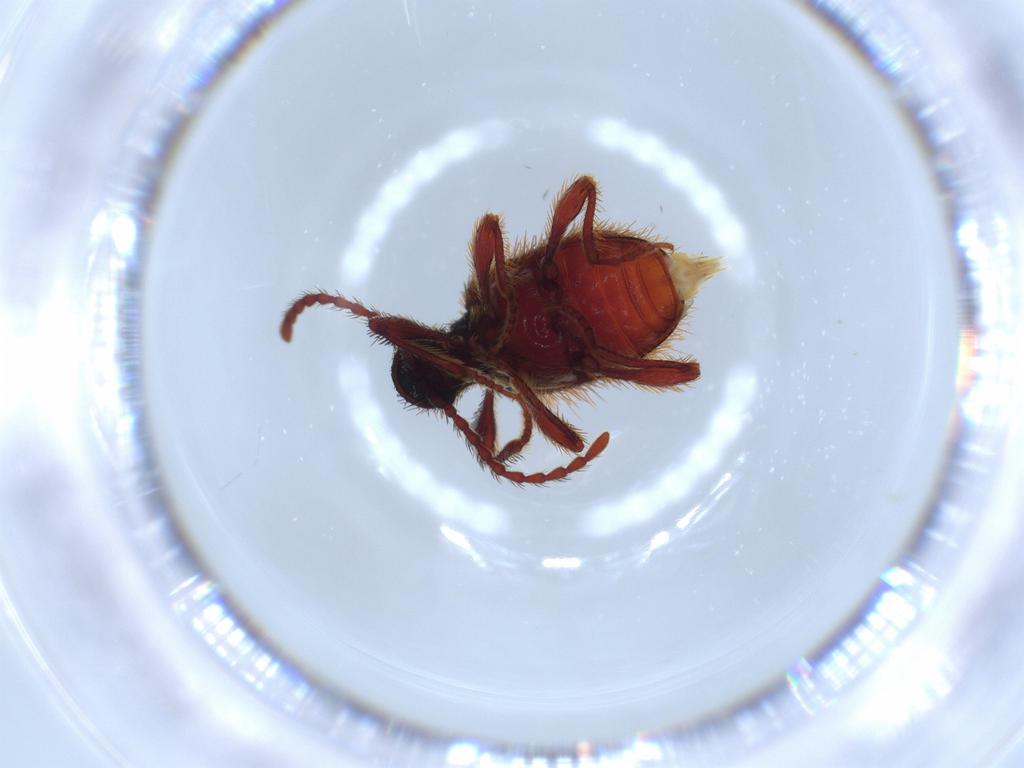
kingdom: Animalia
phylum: Arthropoda
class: Insecta
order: Coleoptera
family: Ptinidae
